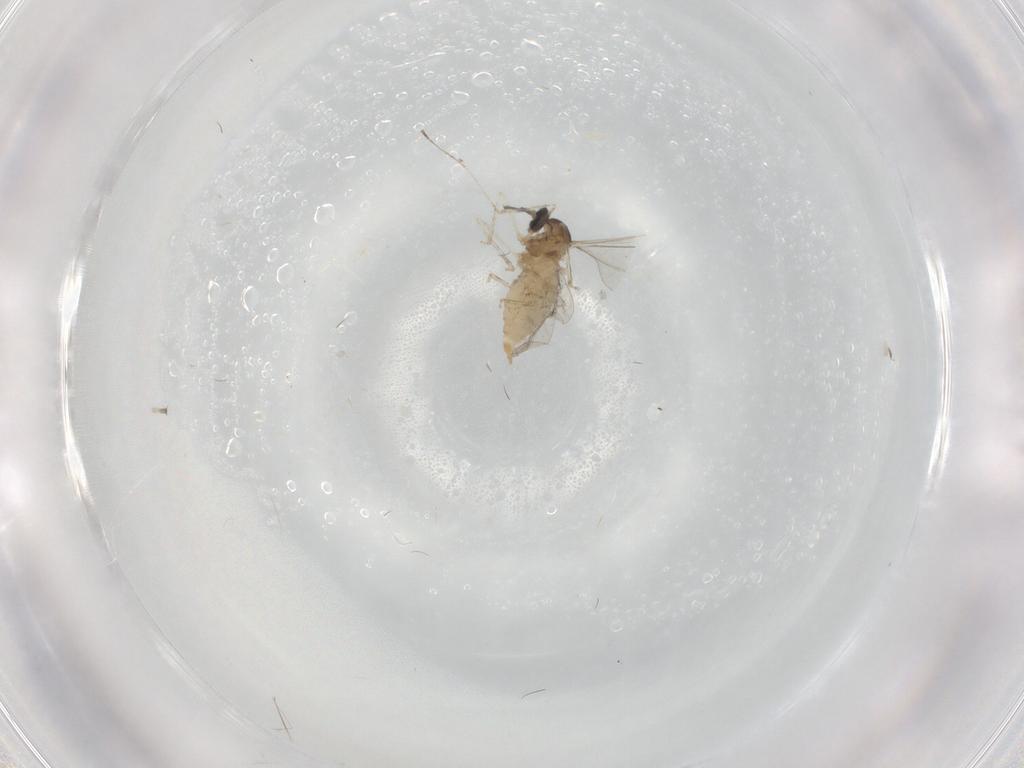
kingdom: Animalia
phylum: Arthropoda
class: Insecta
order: Diptera
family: Cecidomyiidae
